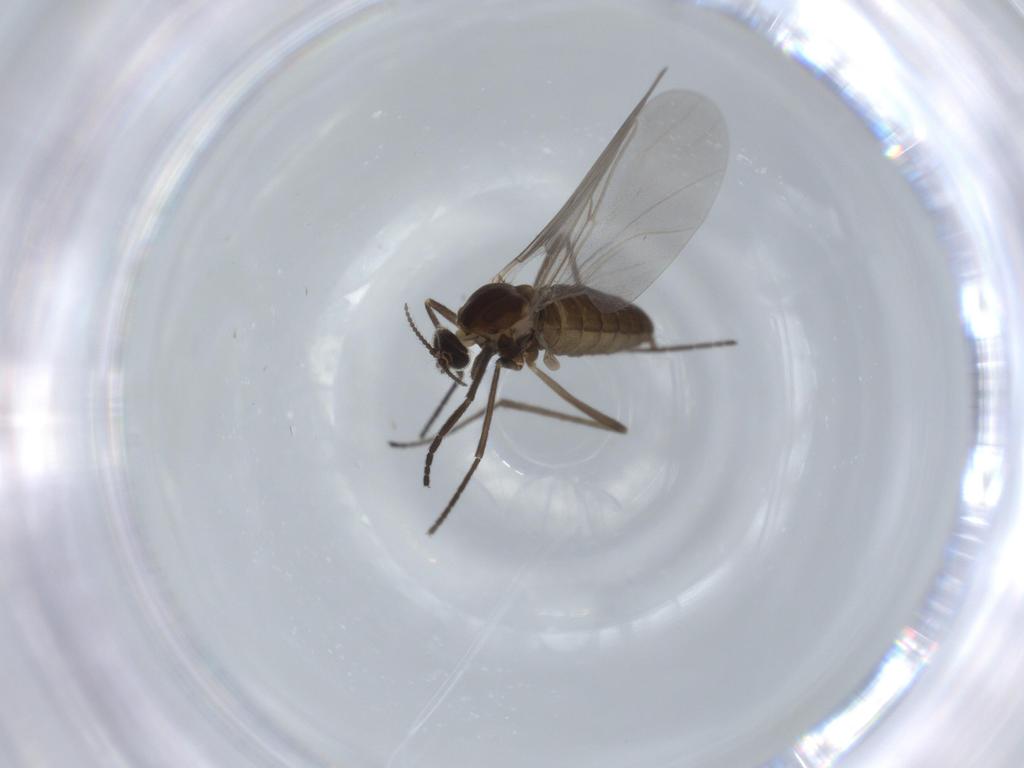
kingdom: Animalia
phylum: Arthropoda
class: Insecta
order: Diptera
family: Cecidomyiidae
